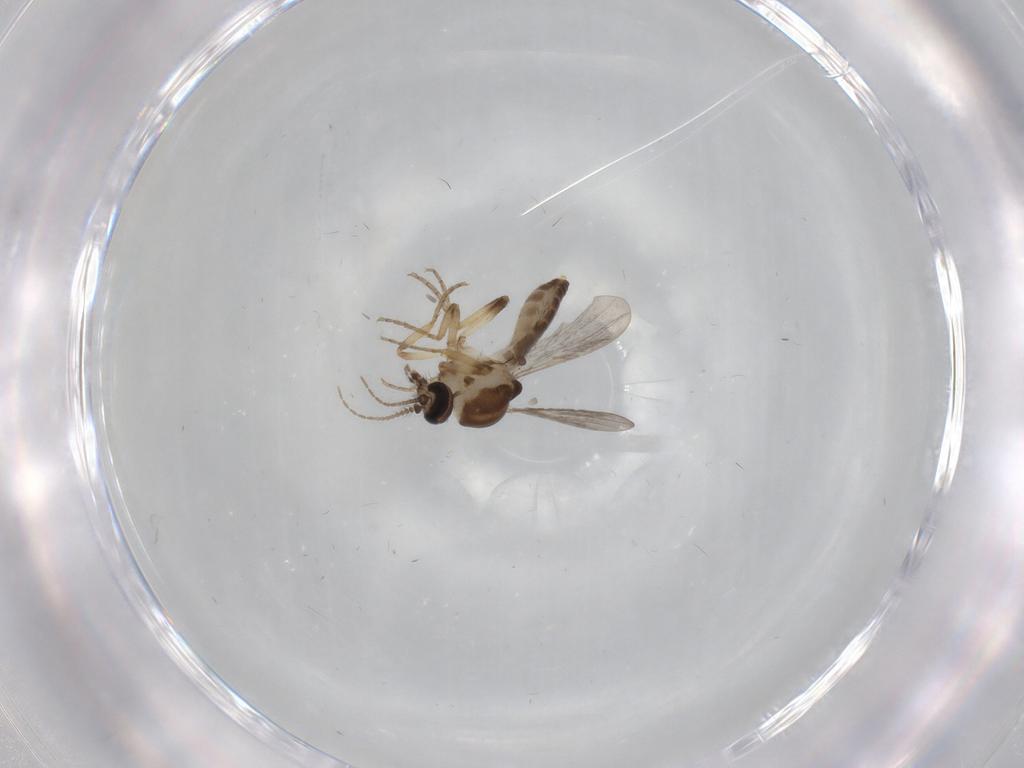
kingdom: Animalia
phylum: Arthropoda
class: Insecta
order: Diptera
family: Ceratopogonidae
